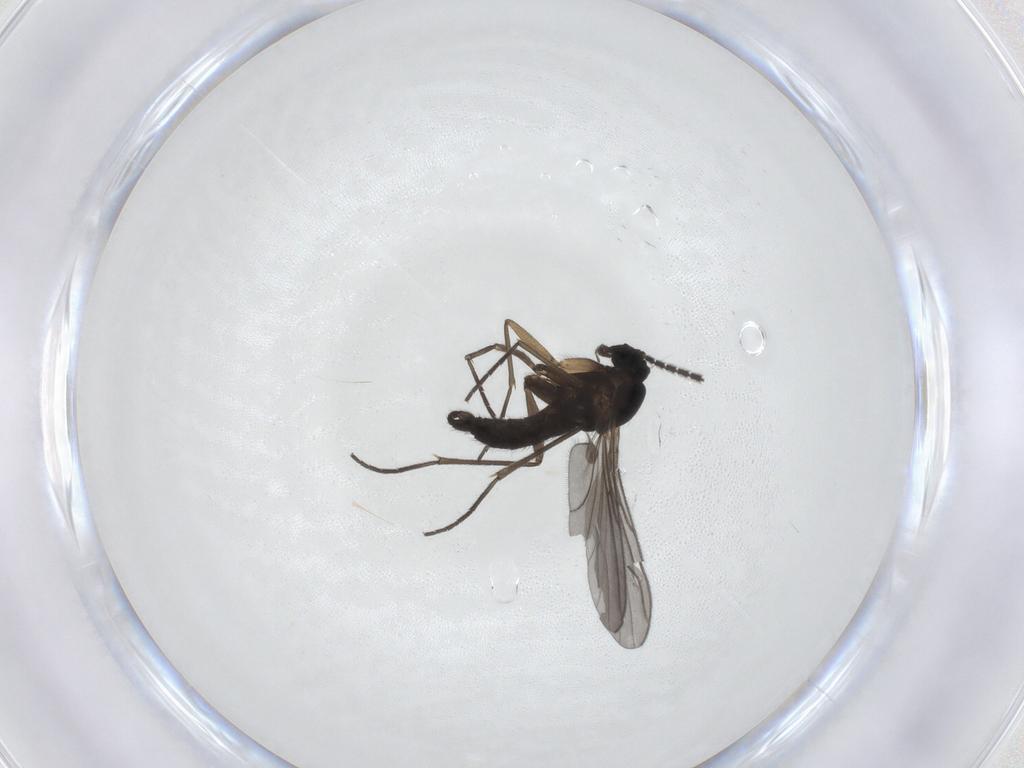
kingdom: Animalia
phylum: Arthropoda
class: Insecta
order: Diptera
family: Sciaridae
